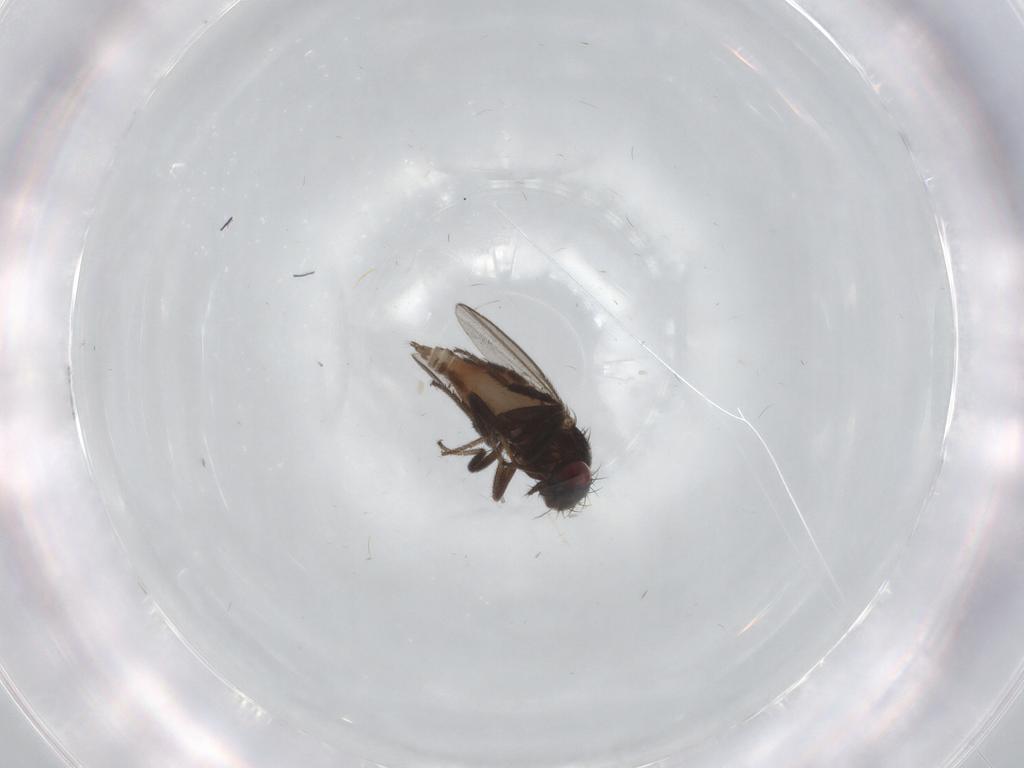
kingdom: Animalia
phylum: Arthropoda
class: Insecta
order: Diptera
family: Milichiidae
